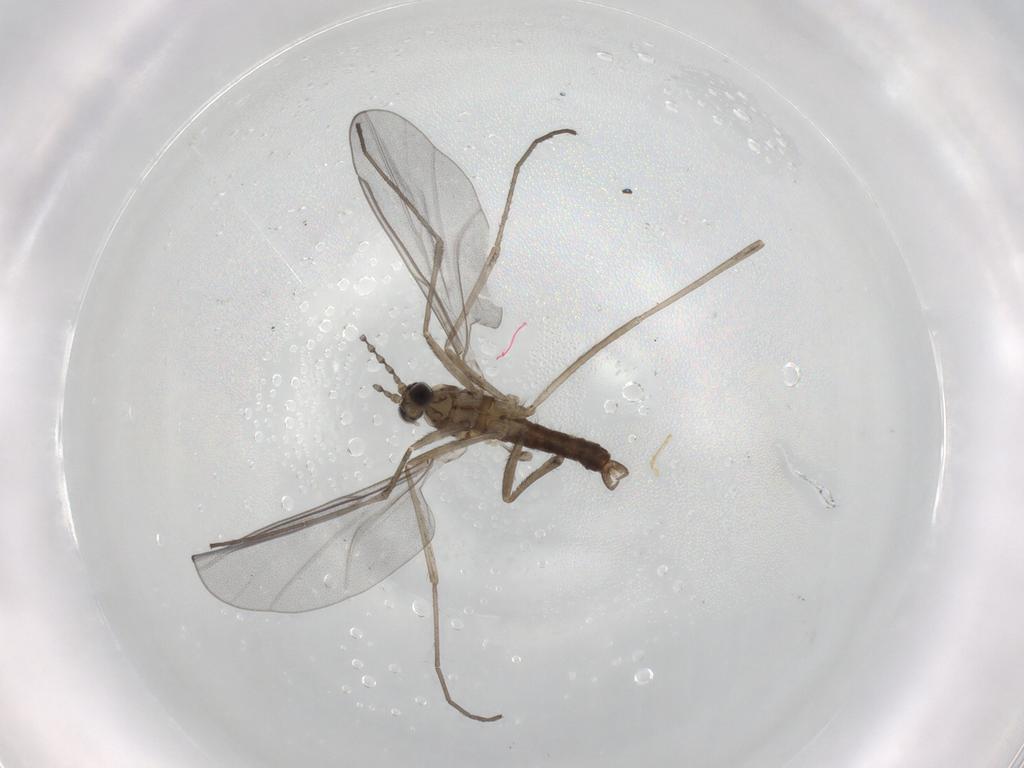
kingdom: Animalia
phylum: Arthropoda
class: Insecta
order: Diptera
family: Cecidomyiidae
